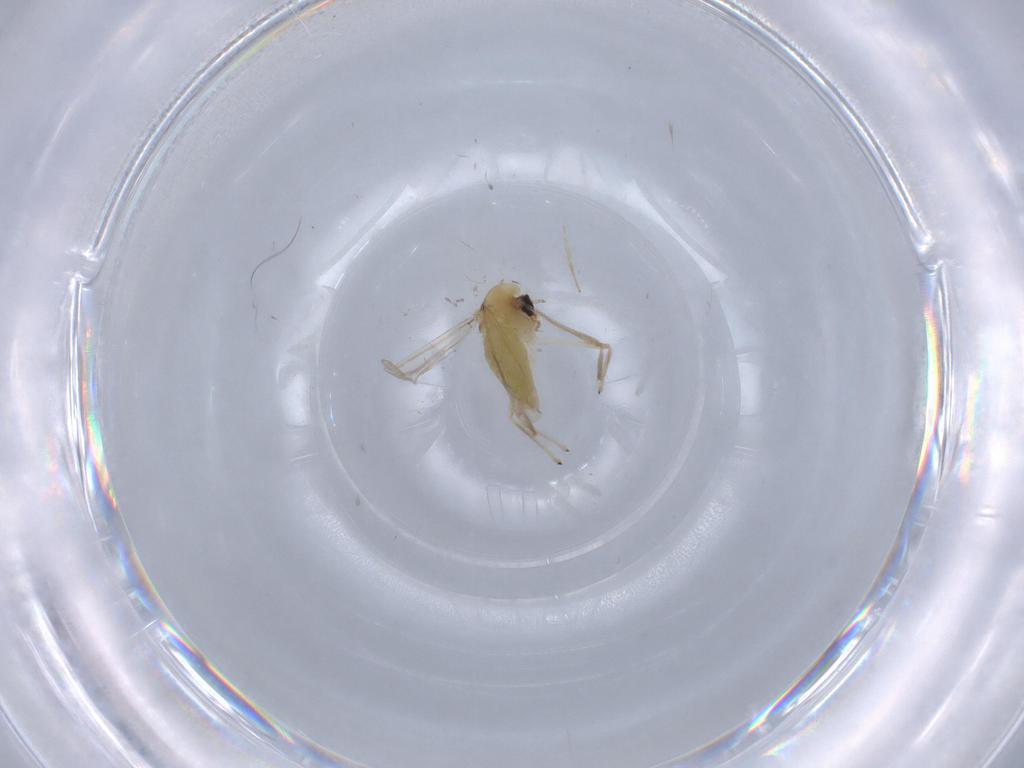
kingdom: Animalia
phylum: Arthropoda
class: Insecta
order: Diptera
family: Chironomidae
